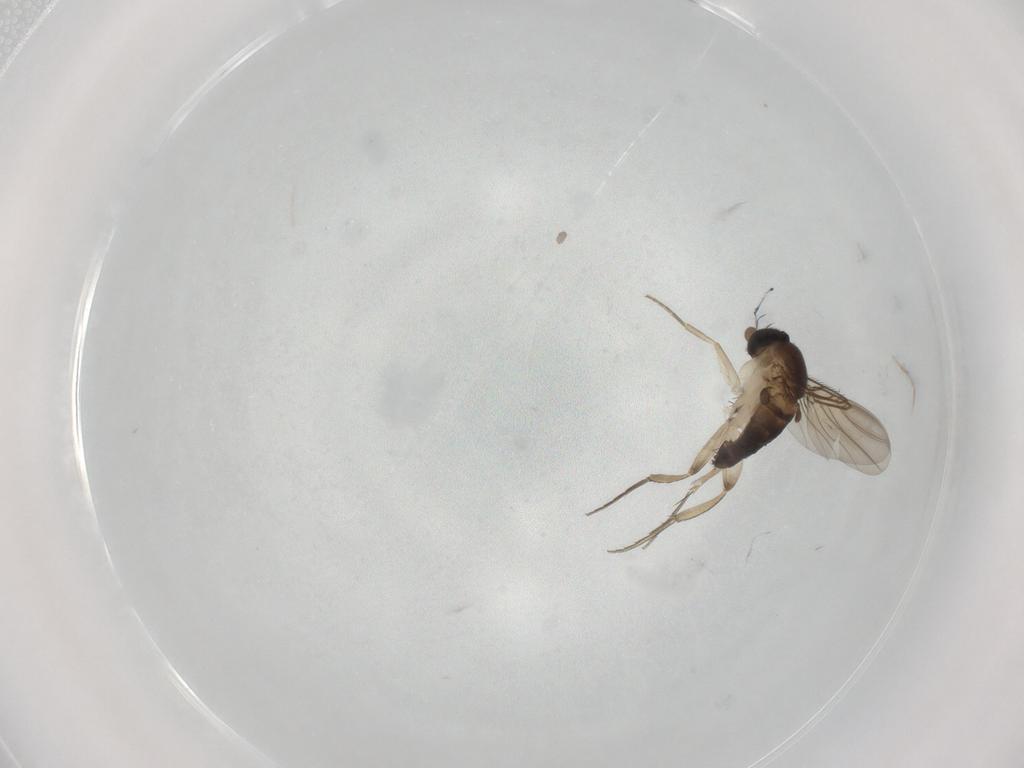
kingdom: Animalia
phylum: Arthropoda
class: Insecta
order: Diptera
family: Phoridae
